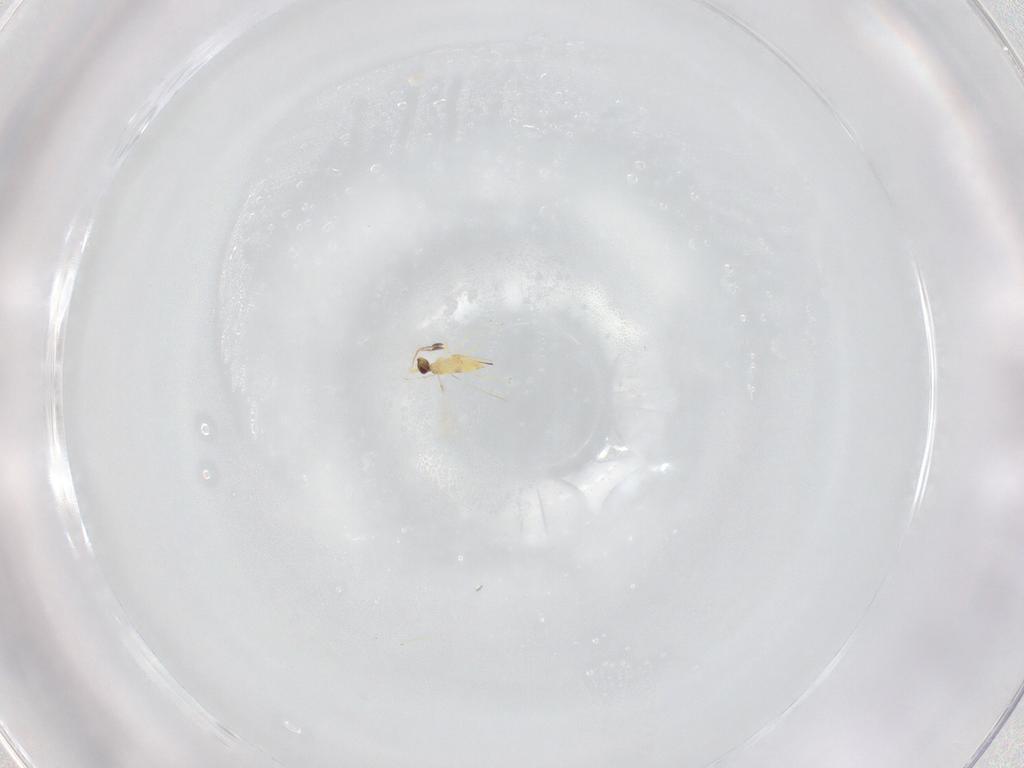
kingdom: Animalia
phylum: Arthropoda
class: Insecta
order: Hymenoptera
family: Mymaridae
